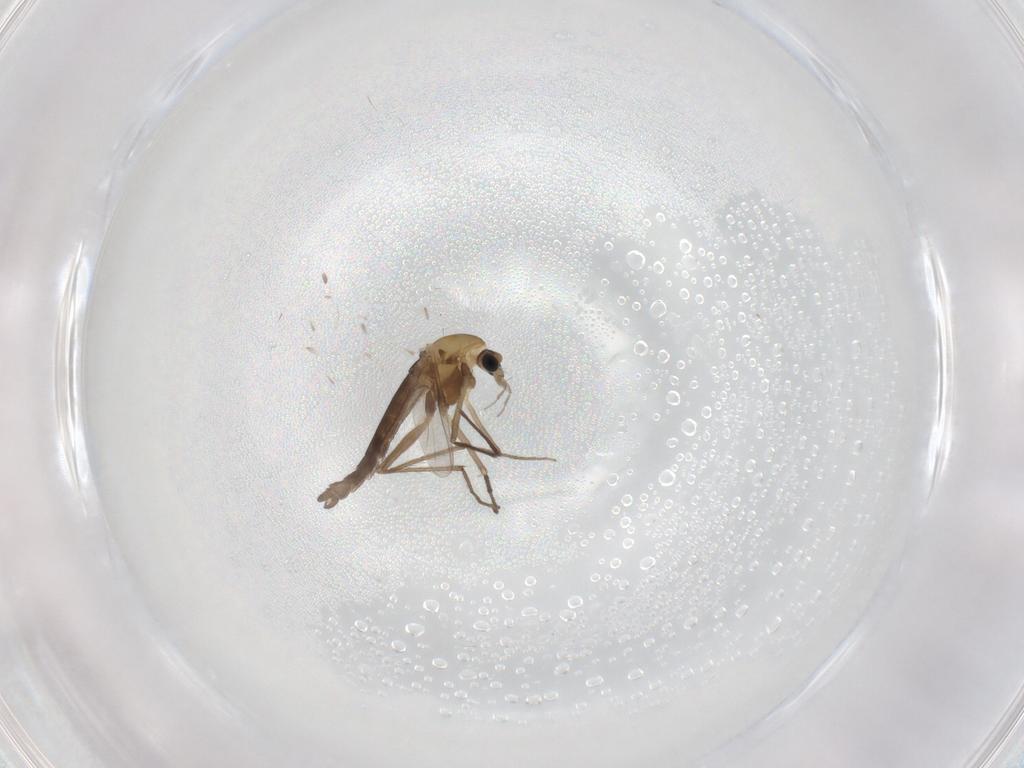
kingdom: Animalia
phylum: Arthropoda
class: Insecta
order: Diptera
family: Chironomidae
